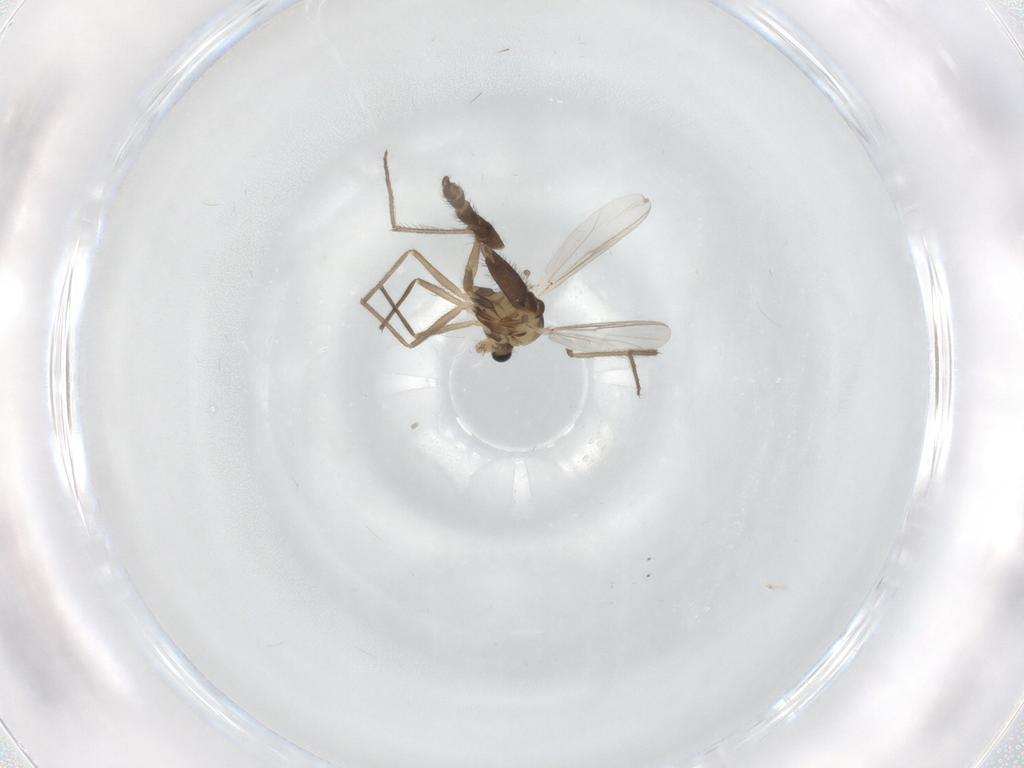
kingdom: Animalia
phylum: Arthropoda
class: Insecta
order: Diptera
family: Chironomidae
